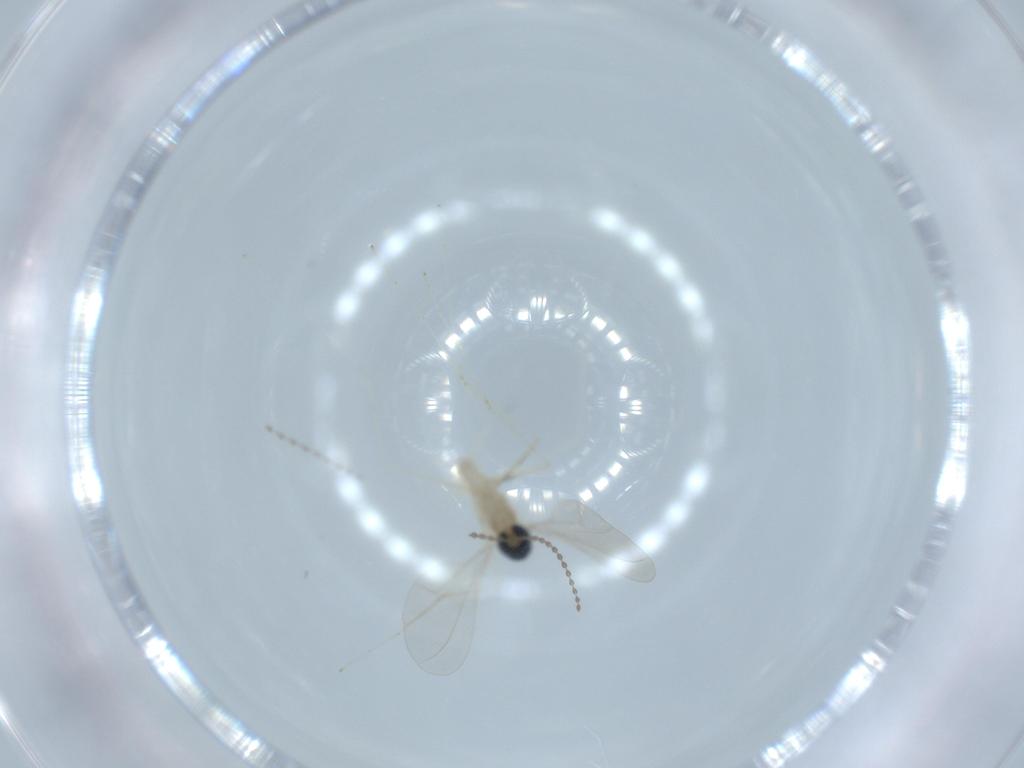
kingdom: Animalia
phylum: Arthropoda
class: Insecta
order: Diptera
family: Cecidomyiidae
